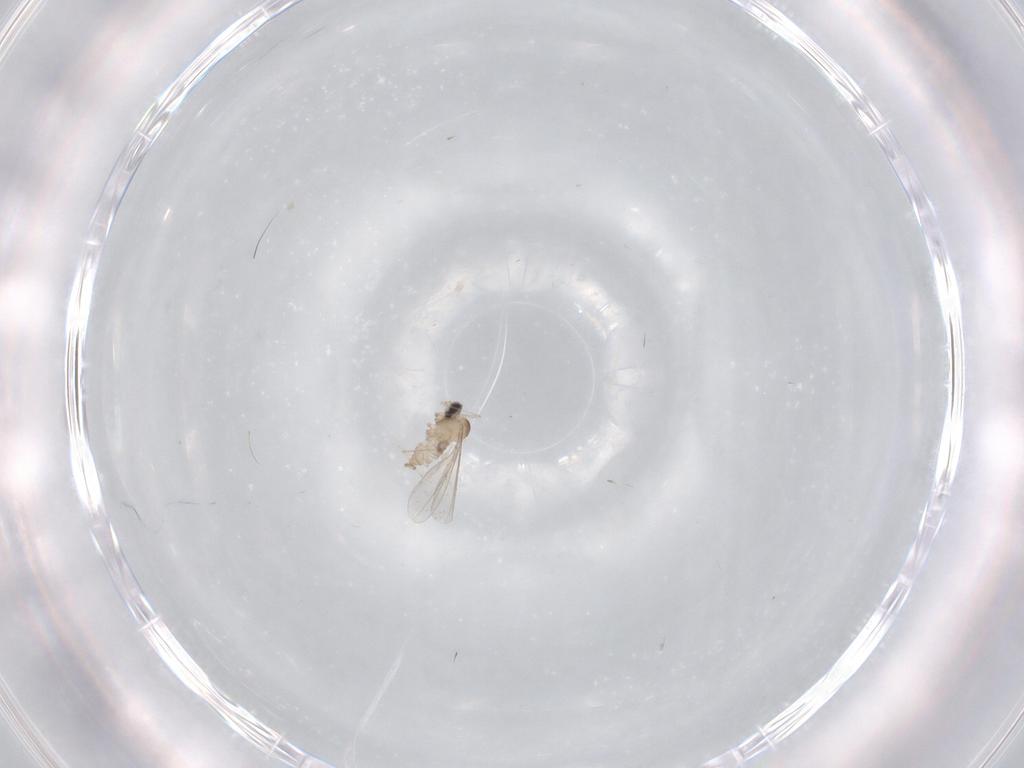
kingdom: Animalia
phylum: Arthropoda
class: Insecta
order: Diptera
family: Cecidomyiidae
